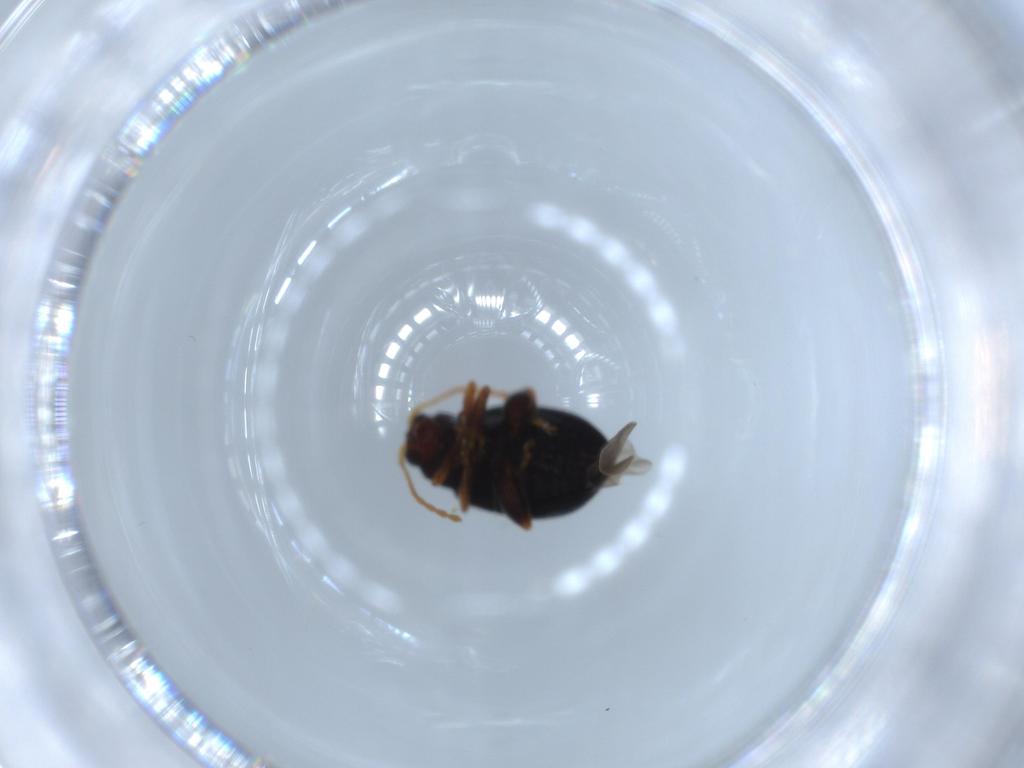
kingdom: Animalia
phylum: Arthropoda
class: Insecta
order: Coleoptera
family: Chrysomelidae
